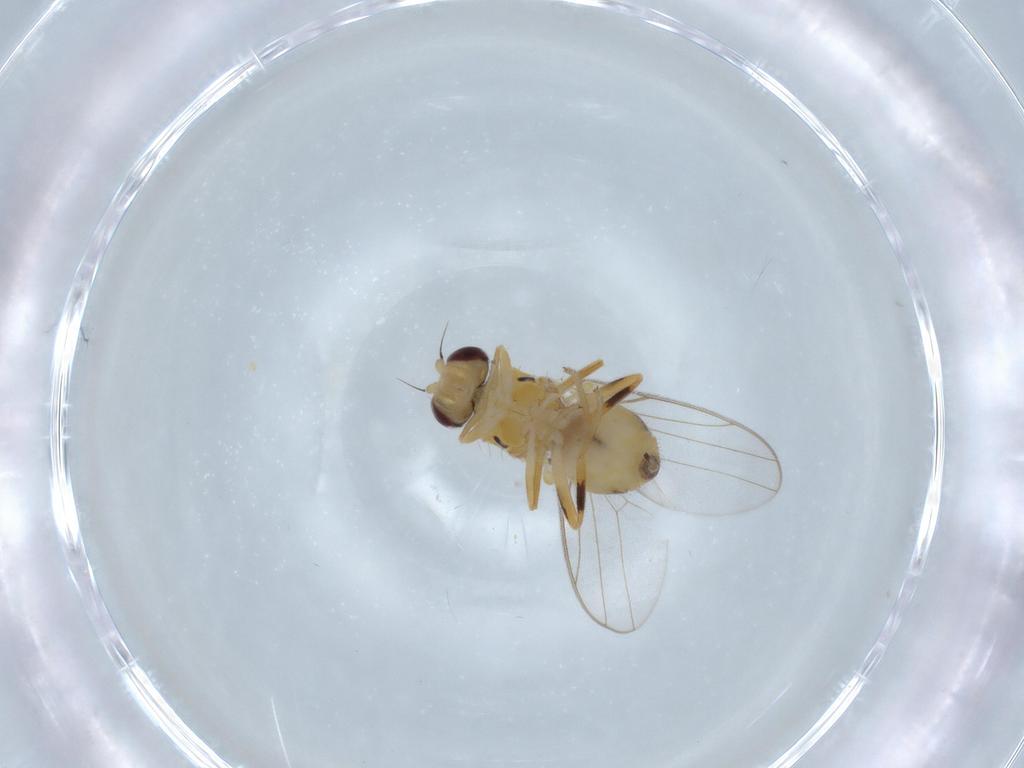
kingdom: Animalia
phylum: Arthropoda
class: Insecta
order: Diptera
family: Chloropidae
